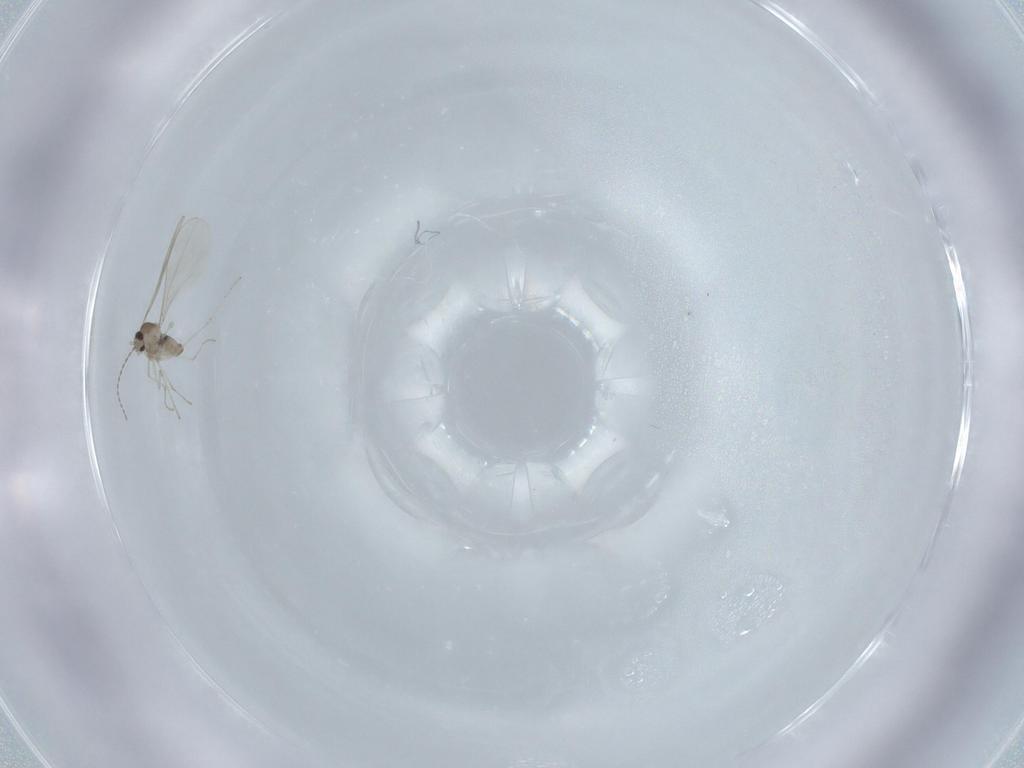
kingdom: Animalia
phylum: Arthropoda
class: Insecta
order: Diptera
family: Cecidomyiidae
